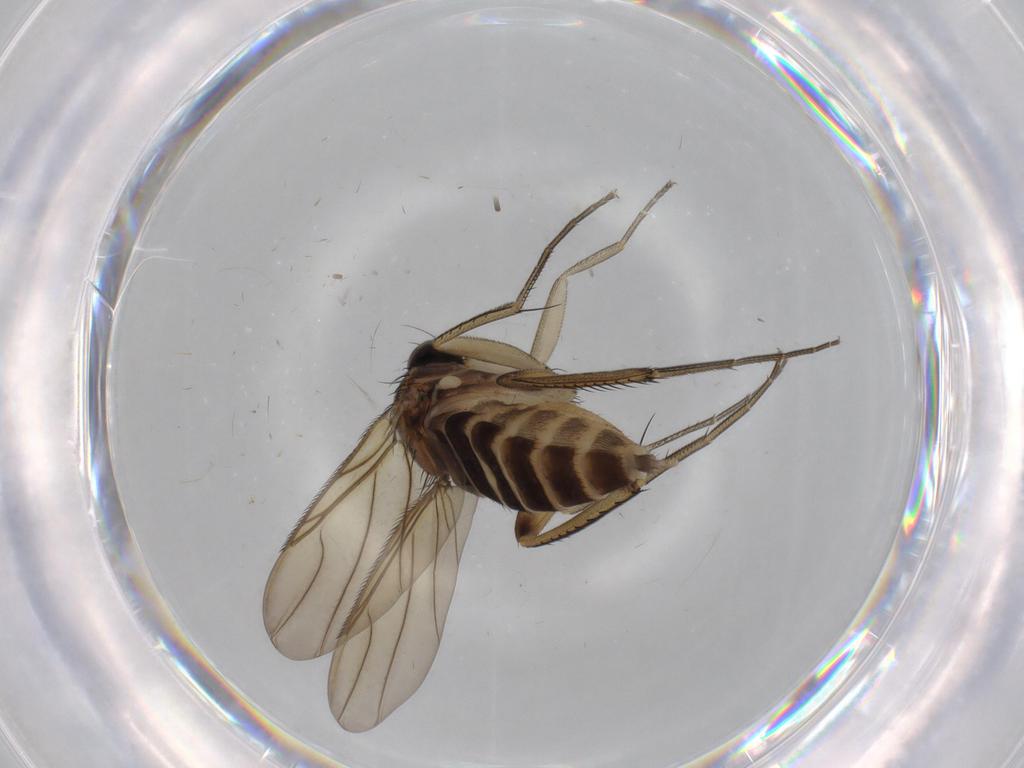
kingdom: Animalia
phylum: Arthropoda
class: Insecta
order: Diptera
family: Phoridae
